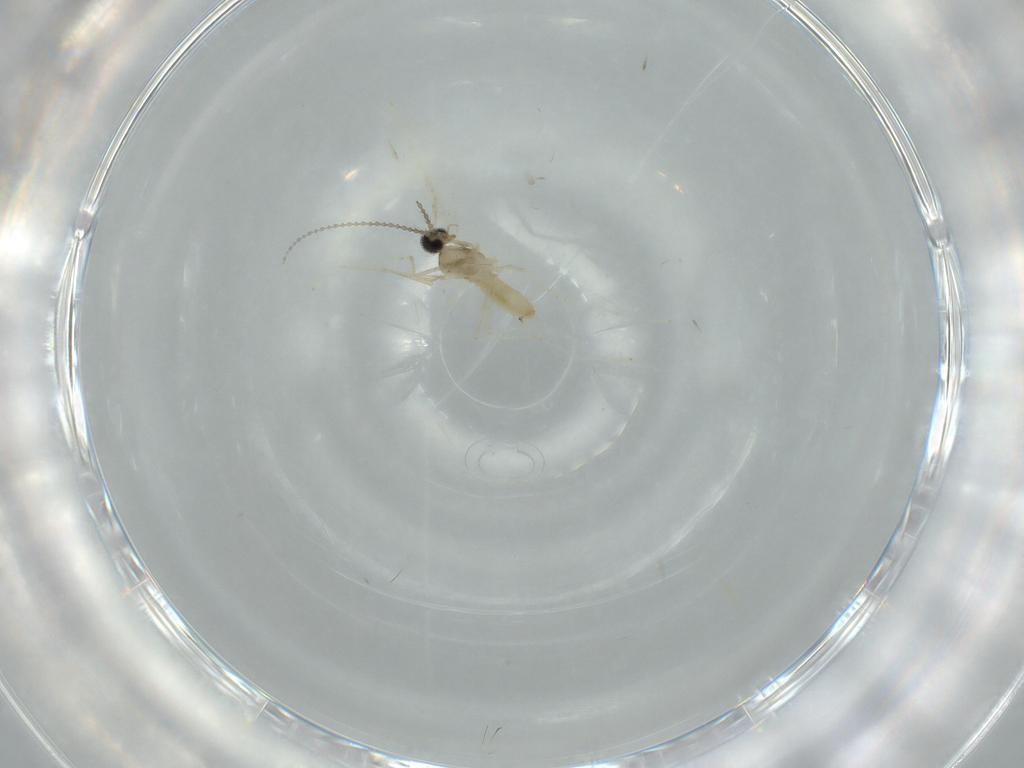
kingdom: Animalia
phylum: Arthropoda
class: Insecta
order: Diptera
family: Cecidomyiidae
